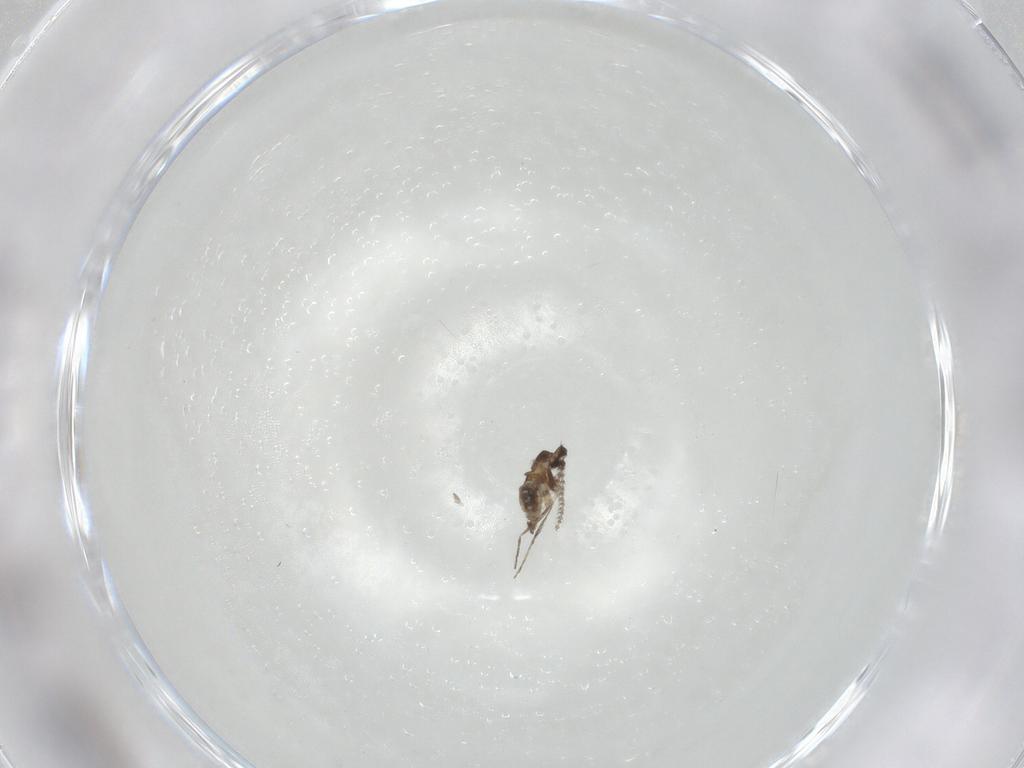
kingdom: Animalia
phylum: Arthropoda
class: Insecta
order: Diptera
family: Cecidomyiidae
